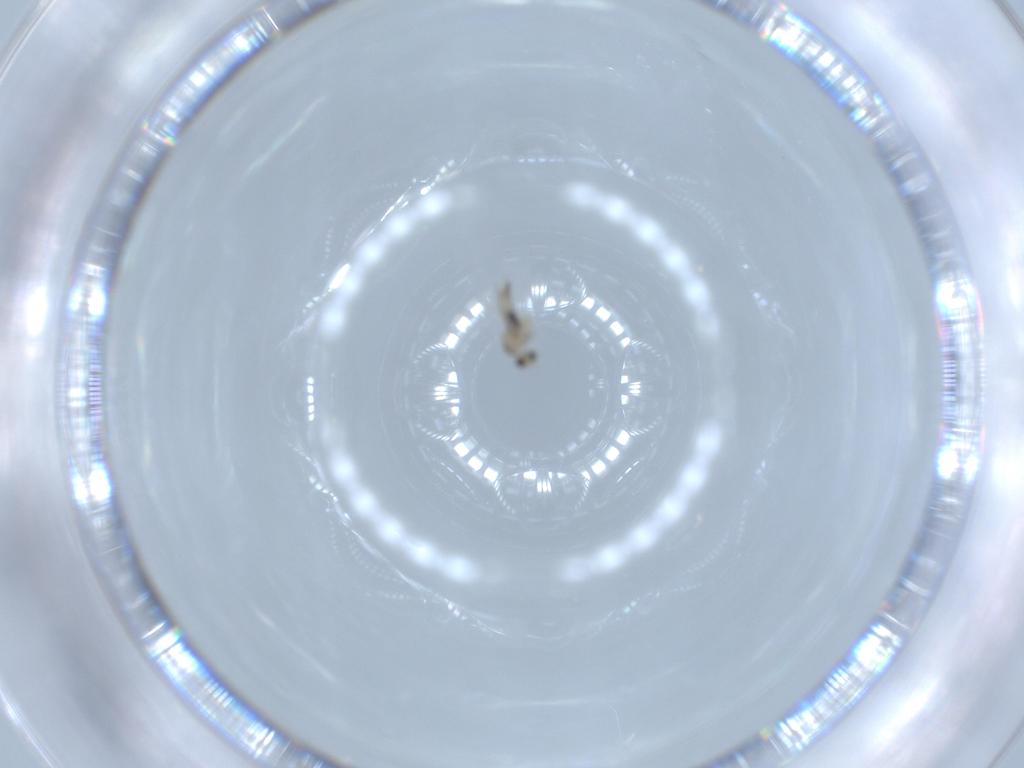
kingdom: Animalia
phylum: Arthropoda
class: Insecta
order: Diptera
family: Cecidomyiidae
